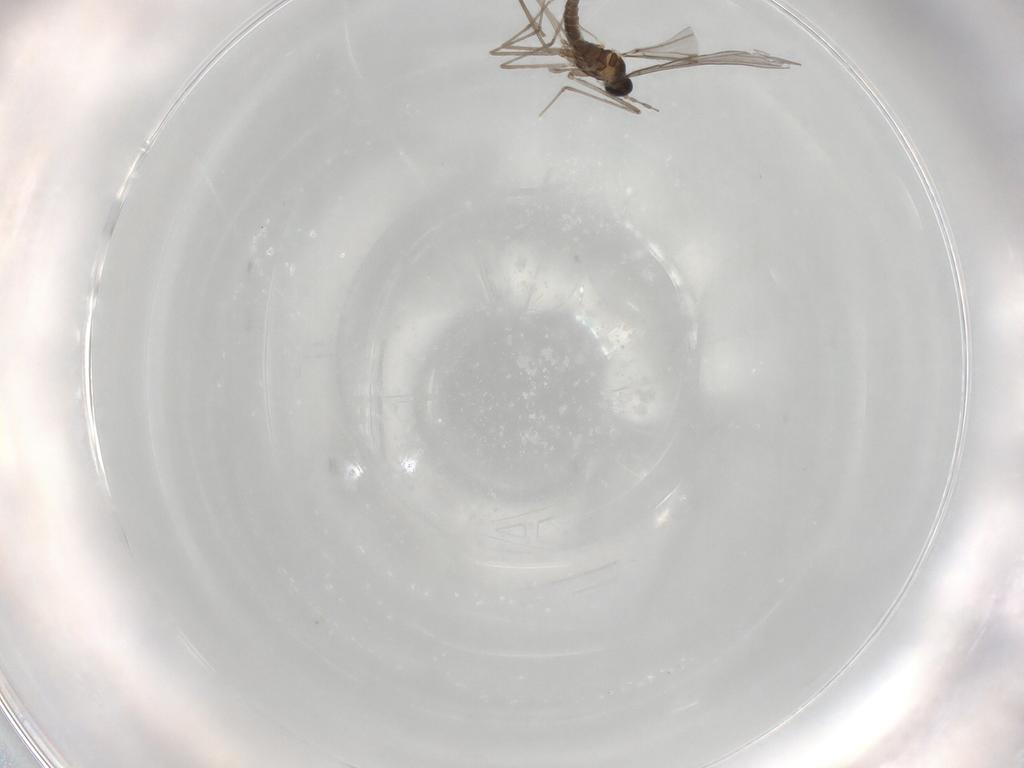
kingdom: Animalia
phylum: Arthropoda
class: Insecta
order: Diptera
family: Cecidomyiidae
